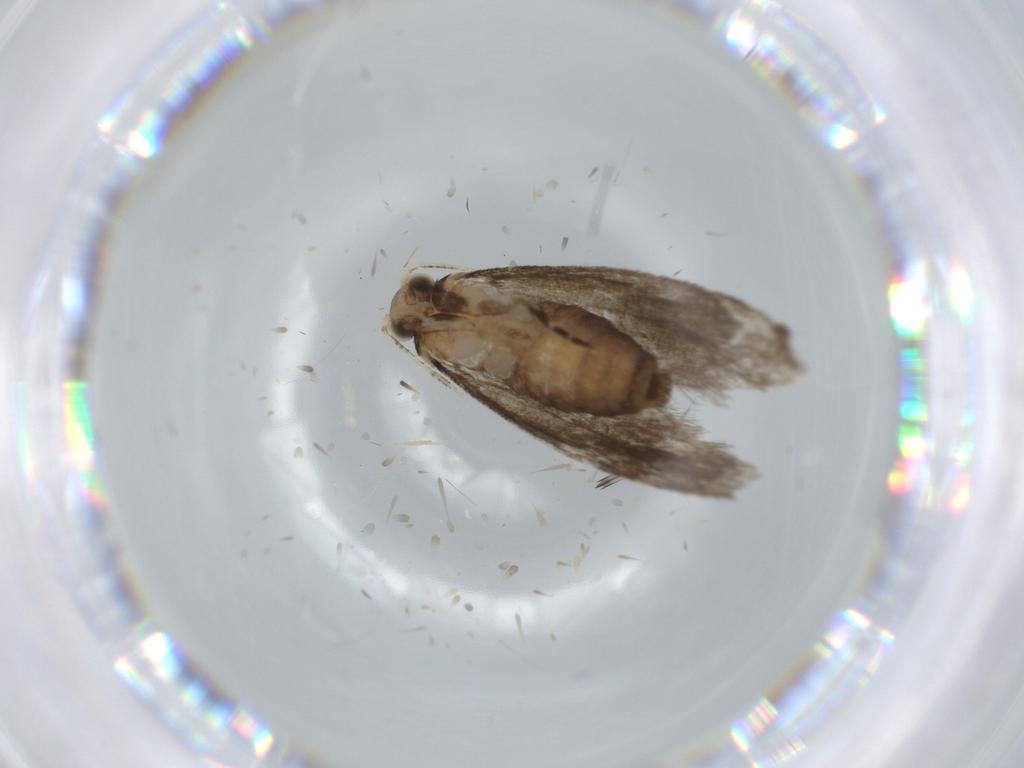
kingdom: Animalia
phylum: Arthropoda
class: Insecta
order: Lepidoptera
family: Tineidae
